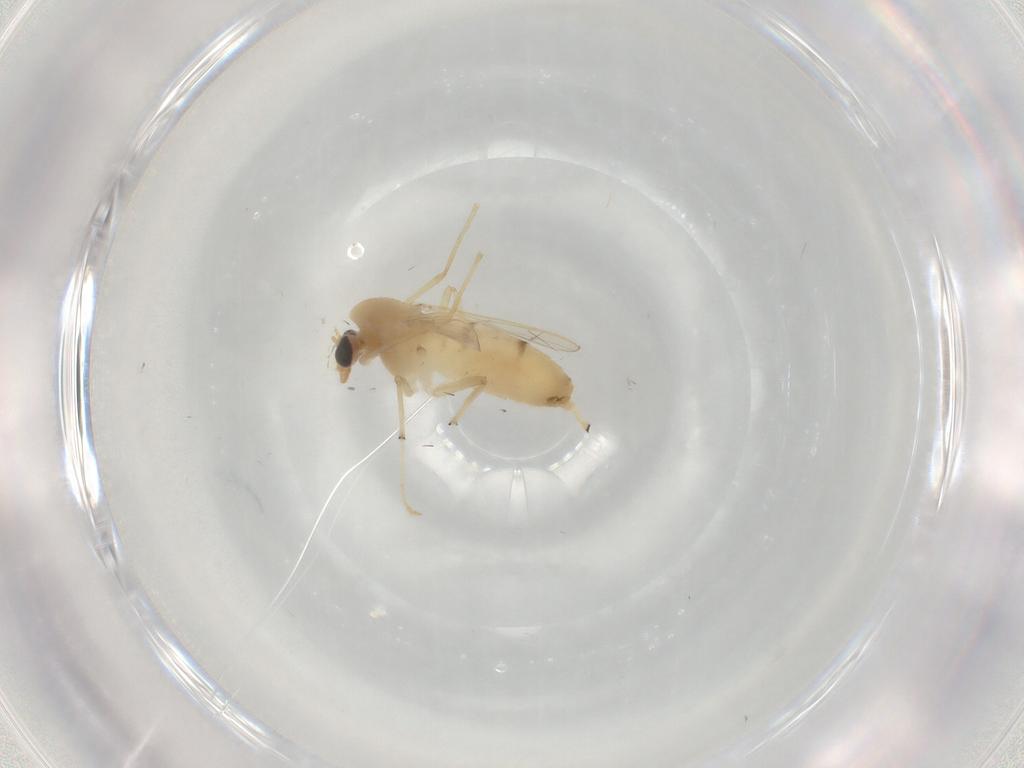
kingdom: Animalia
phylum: Arthropoda
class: Insecta
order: Diptera
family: Chironomidae
